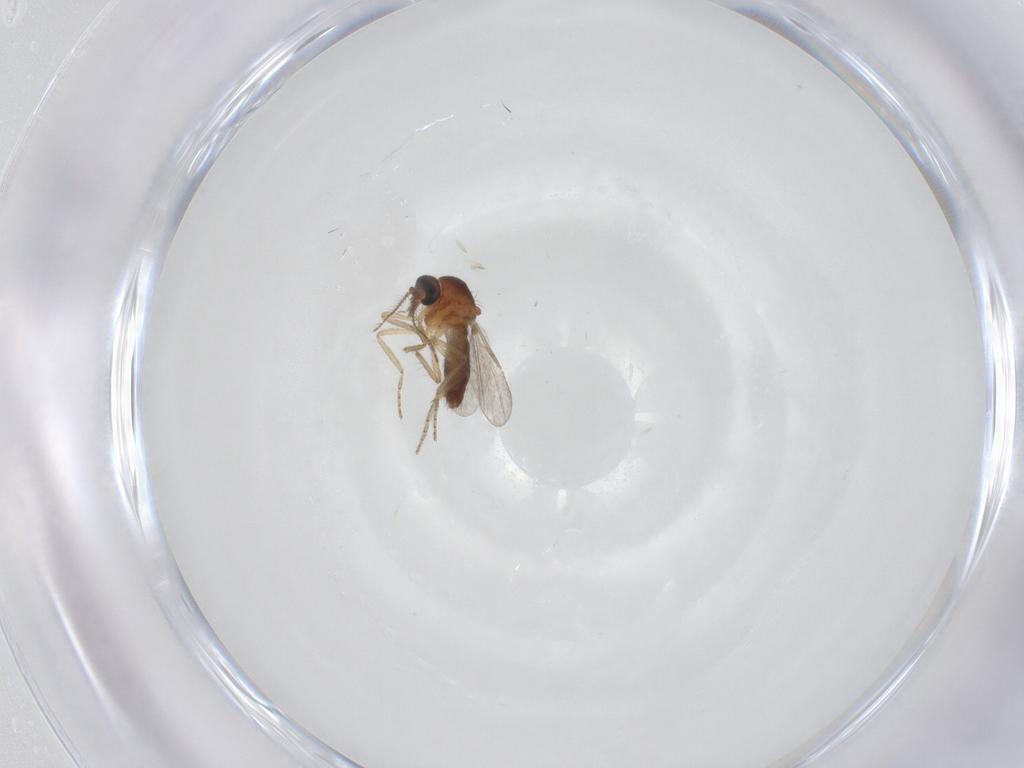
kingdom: Animalia
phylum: Arthropoda
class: Insecta
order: Diptera
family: Ceratopogonidae
